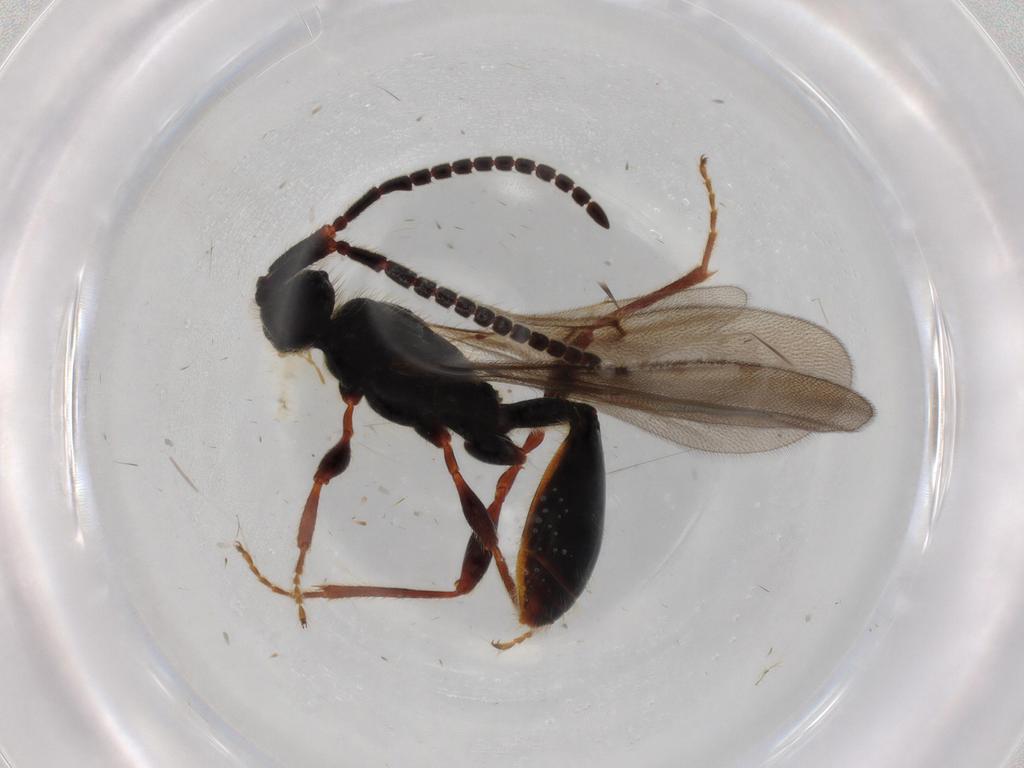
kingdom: Animalia
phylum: Arthropoda
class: Insecta
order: Hymenoptera
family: Diapriidae
